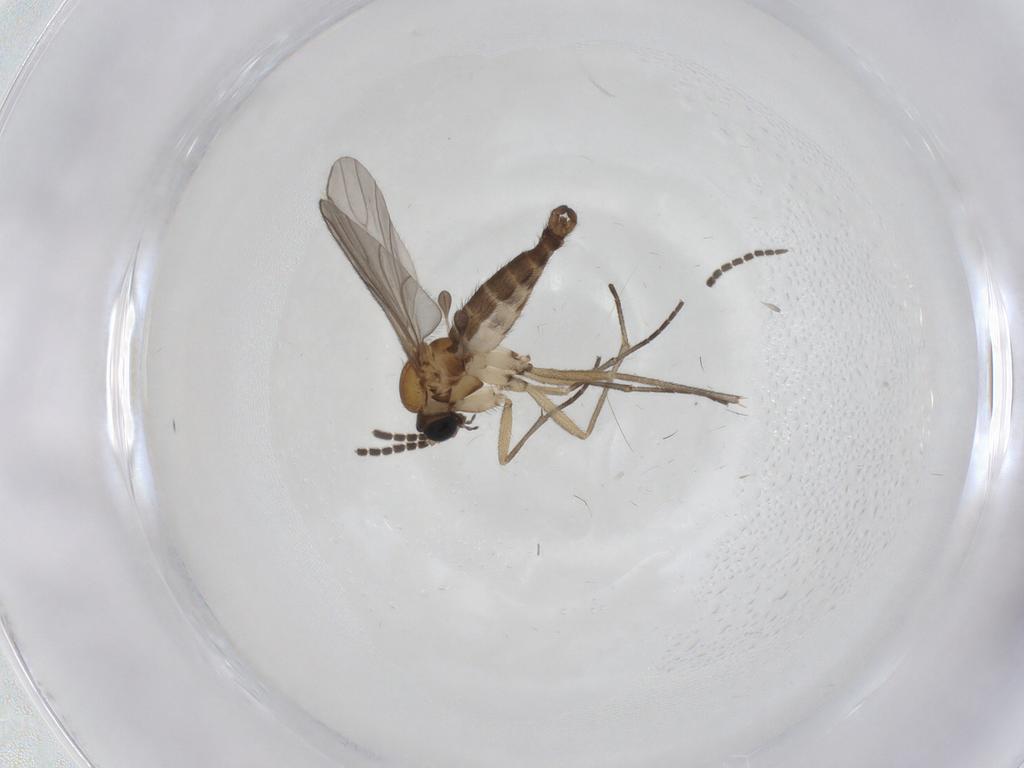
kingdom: Animalia
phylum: Arthropoda
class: Insecta
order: Diptera
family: Sciaridae
